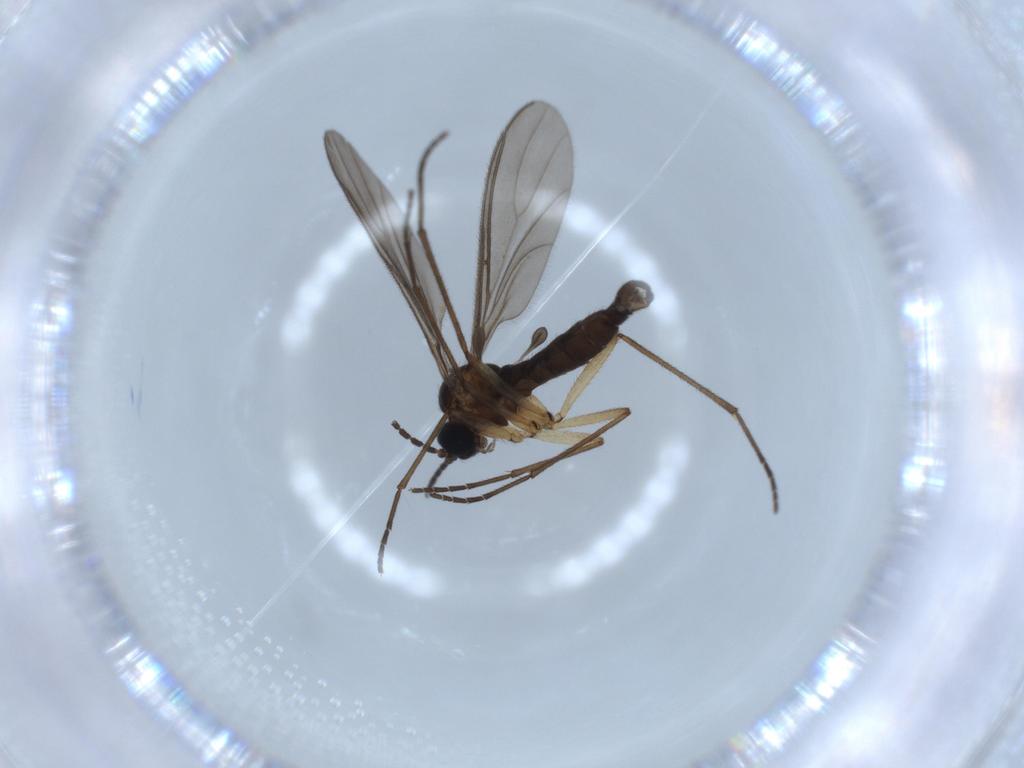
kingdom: Animalia
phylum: Arthropoda
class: Insecta
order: Diptera
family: Sciaridae
